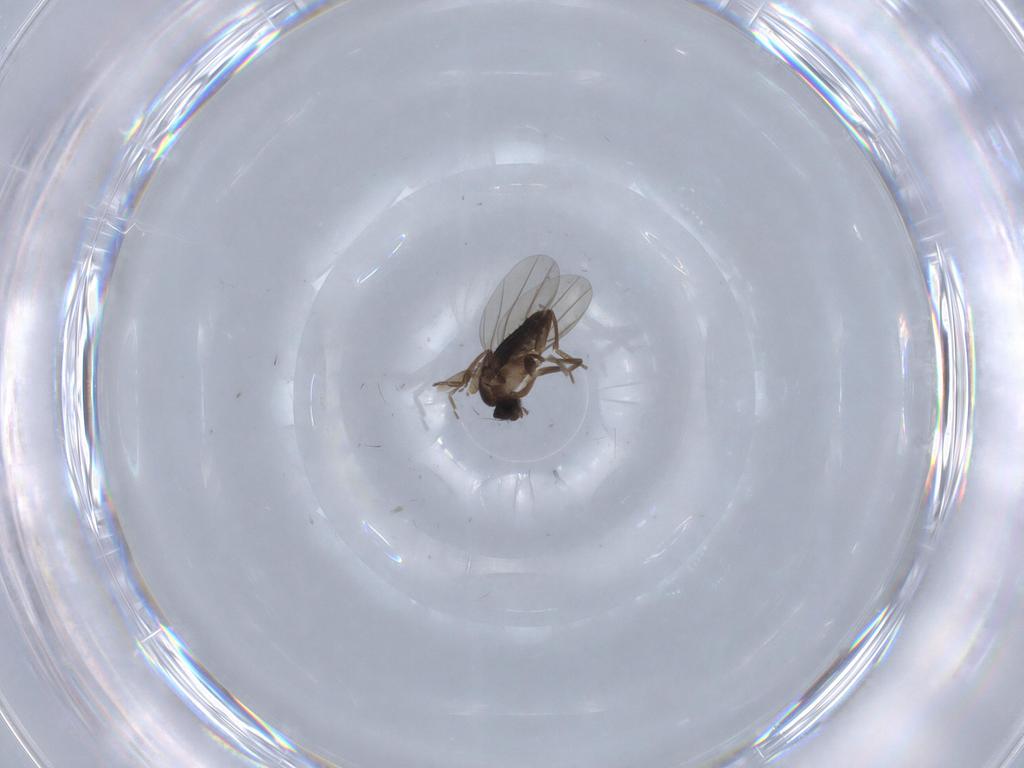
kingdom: Animalia
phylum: Arthropoda
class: Insecta
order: Diptera
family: Phoridae
